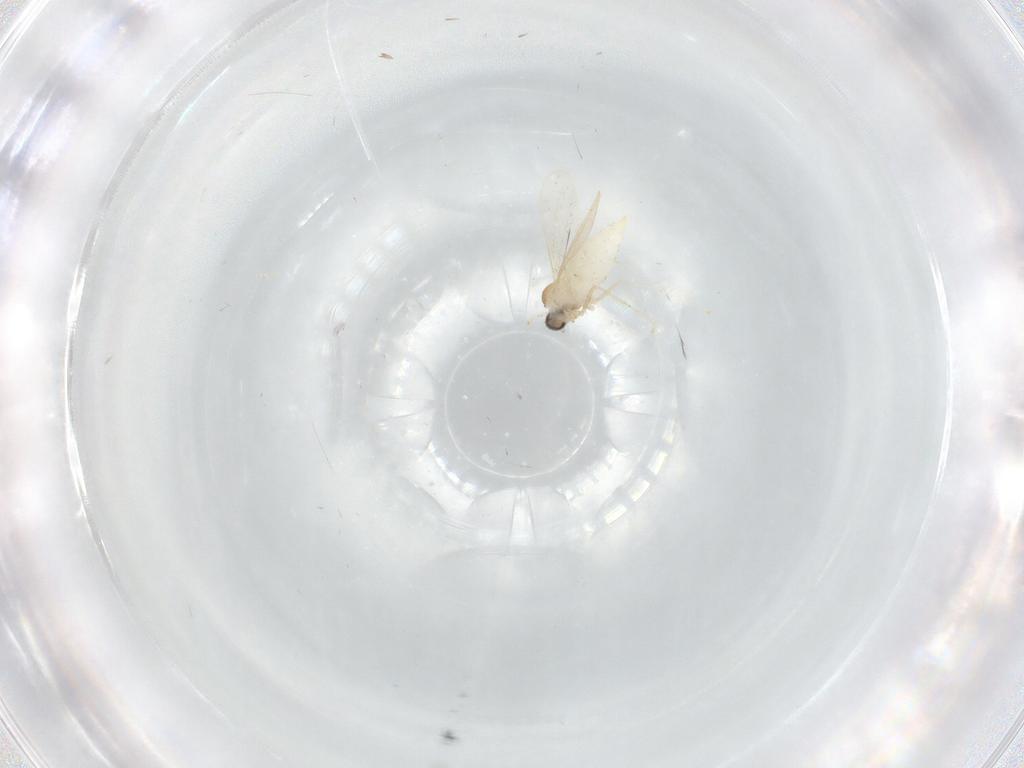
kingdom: Animalia
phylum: Arthropoda
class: Insecta
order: Diptera
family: Cecidomyiidae
